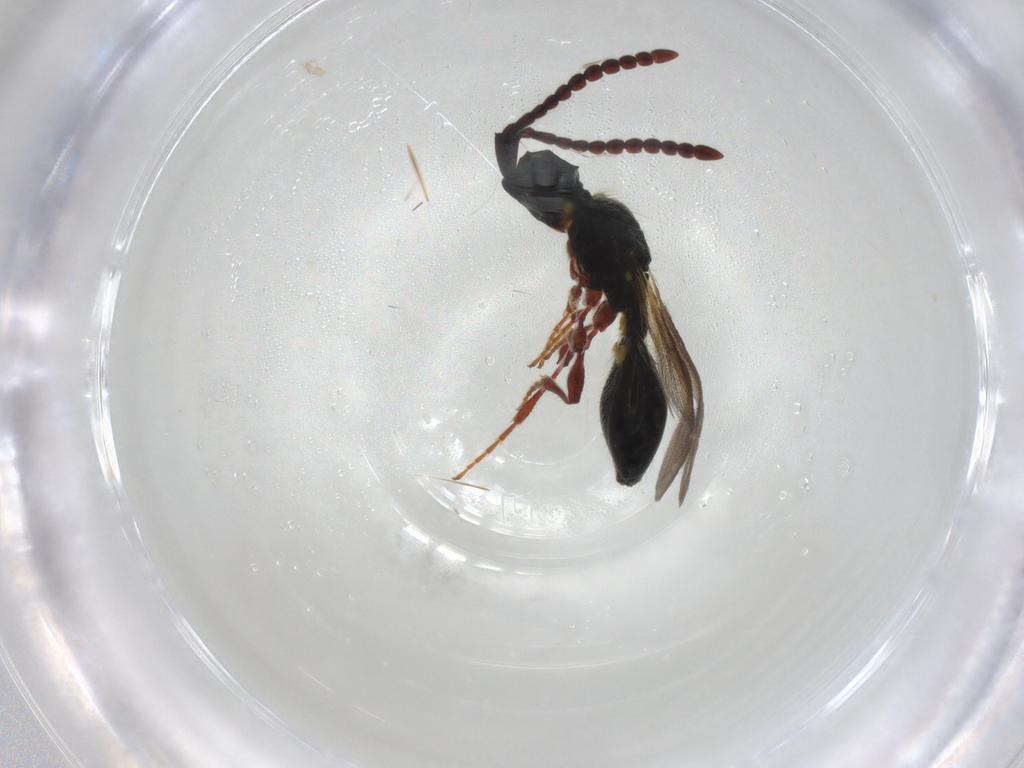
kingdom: Animalia
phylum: Arthropoda
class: Insecta
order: Hymenoptera
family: Diapriidae
